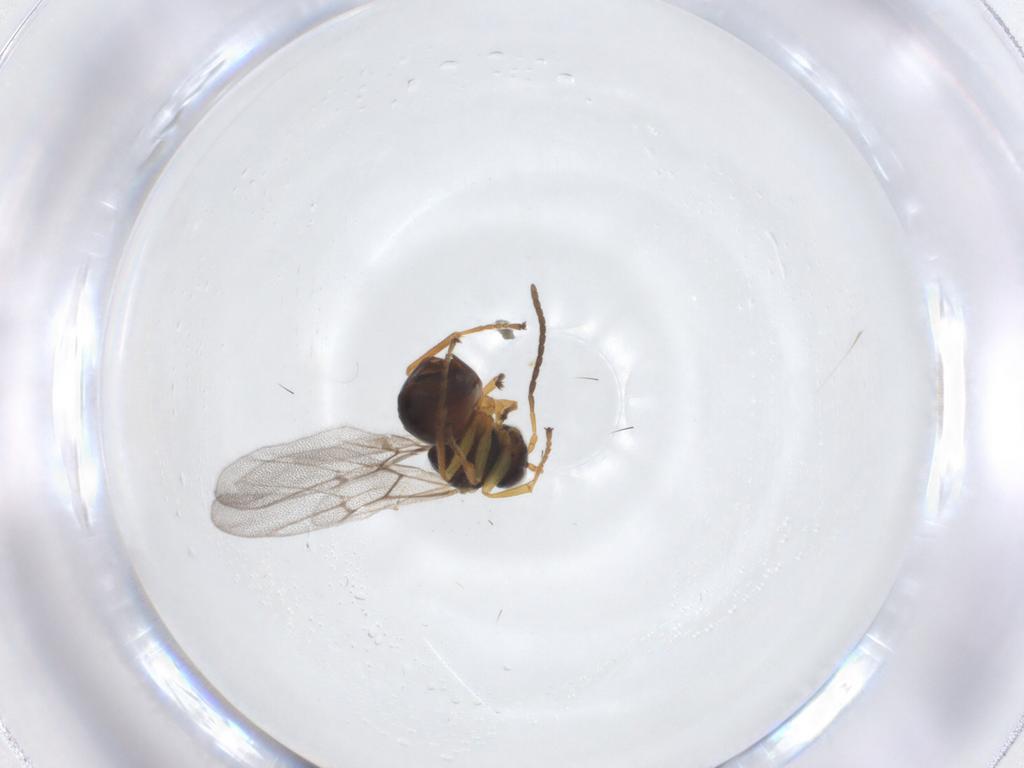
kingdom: Animalia
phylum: Arthropoda
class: Insecta
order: Hymenoptera
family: Cynipidae
